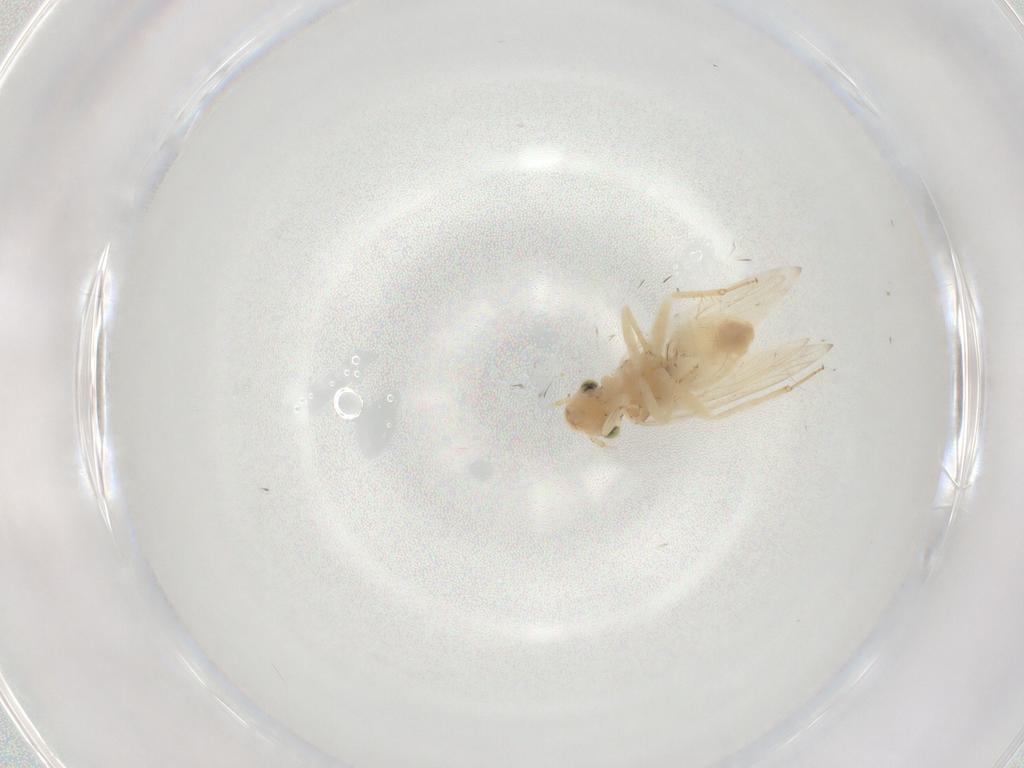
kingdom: Animalia
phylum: Arthropoda
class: Insecta
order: Psocodea
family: Lepidopsocidae
